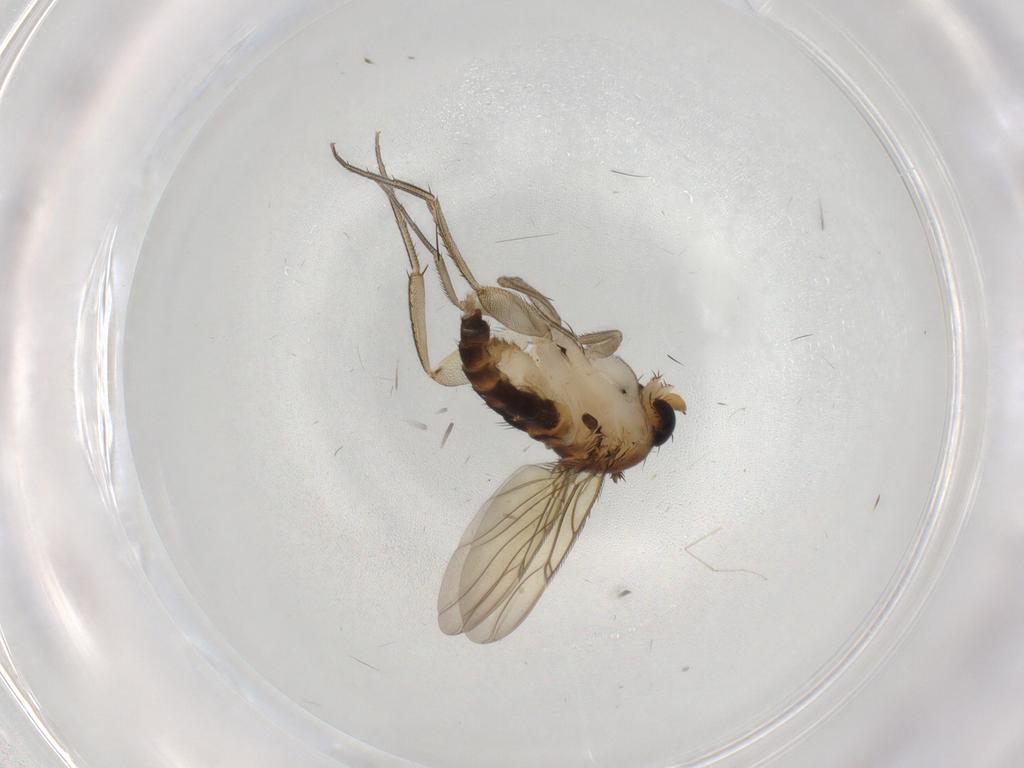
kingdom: Animalia
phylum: Arthropoda
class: Insecta
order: Diptera
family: Phoridae
